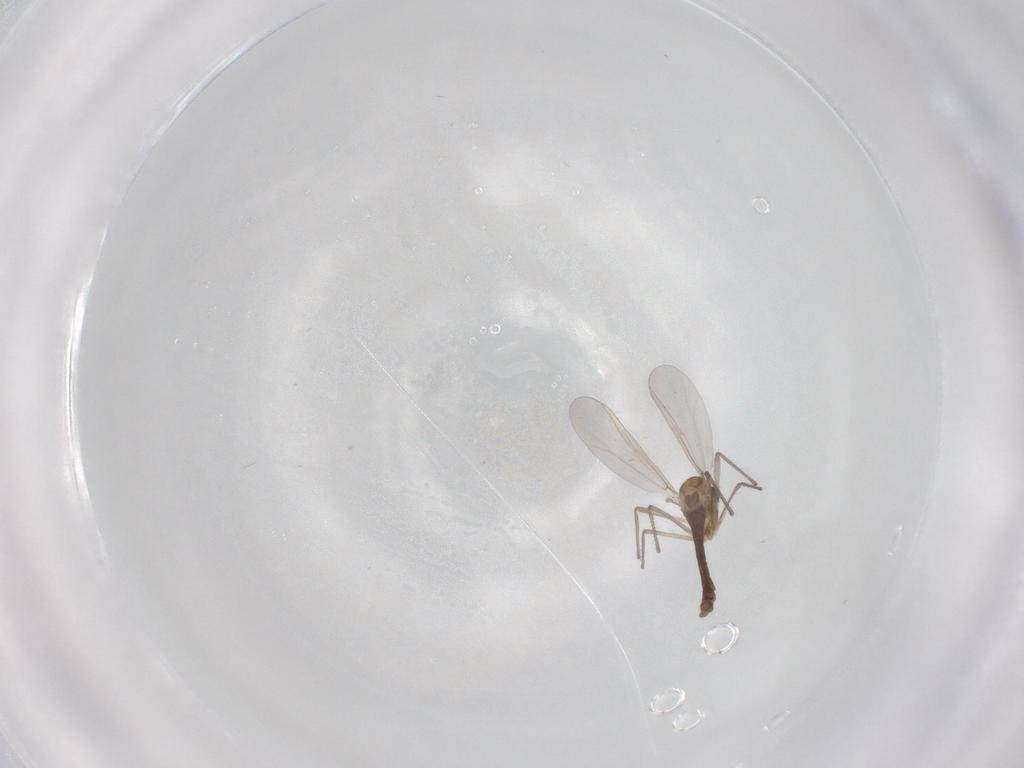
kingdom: Animalia
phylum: Arthropoda
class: Insecta
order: Diptera
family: Chironomidae
